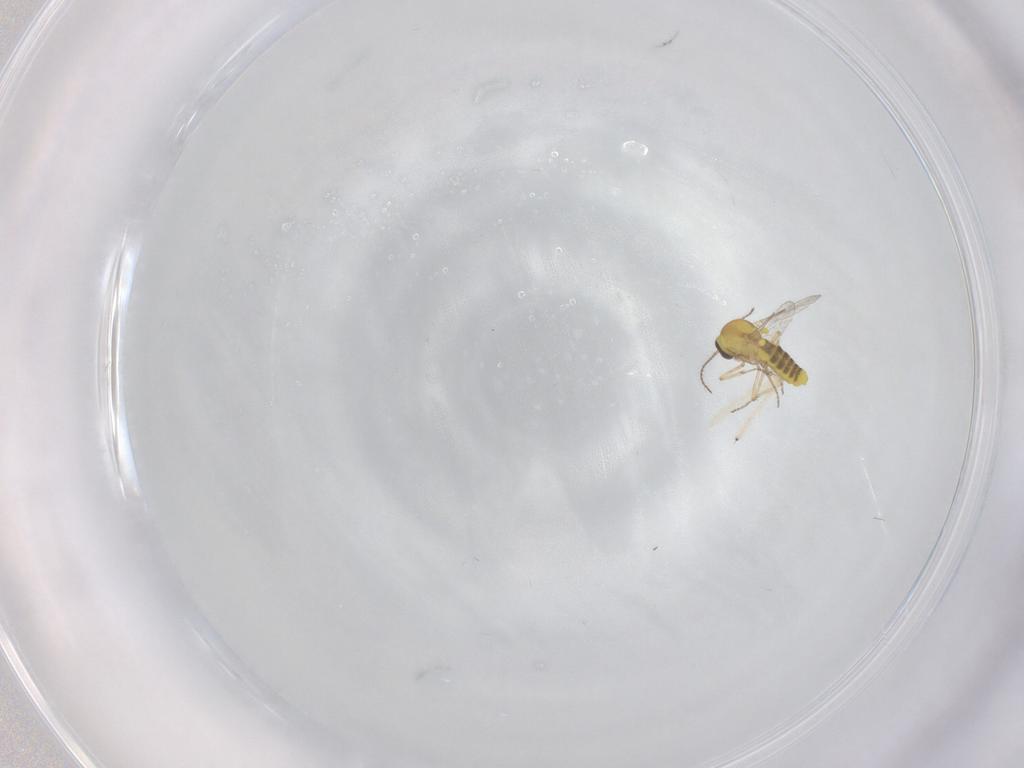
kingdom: Animalia
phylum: Arthropoda
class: Insecta
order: Diptera
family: Ceratopogonidae
